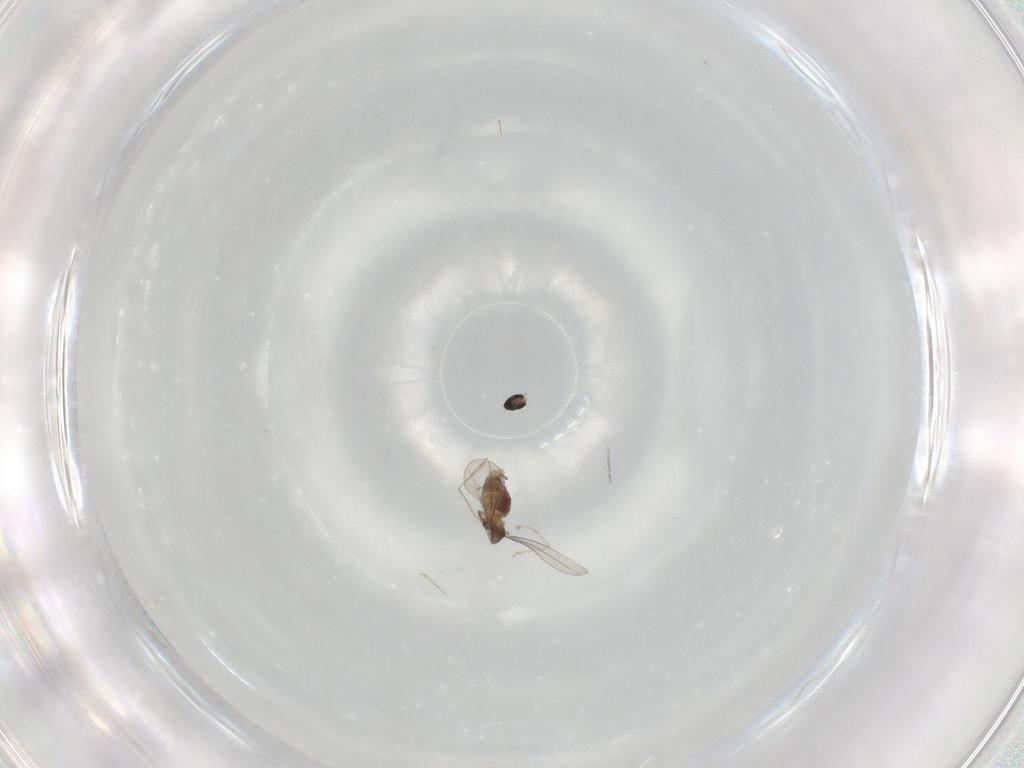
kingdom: Animalia
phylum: Arthropoda
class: Insecta
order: Diptera
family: Cecidomyiidae
